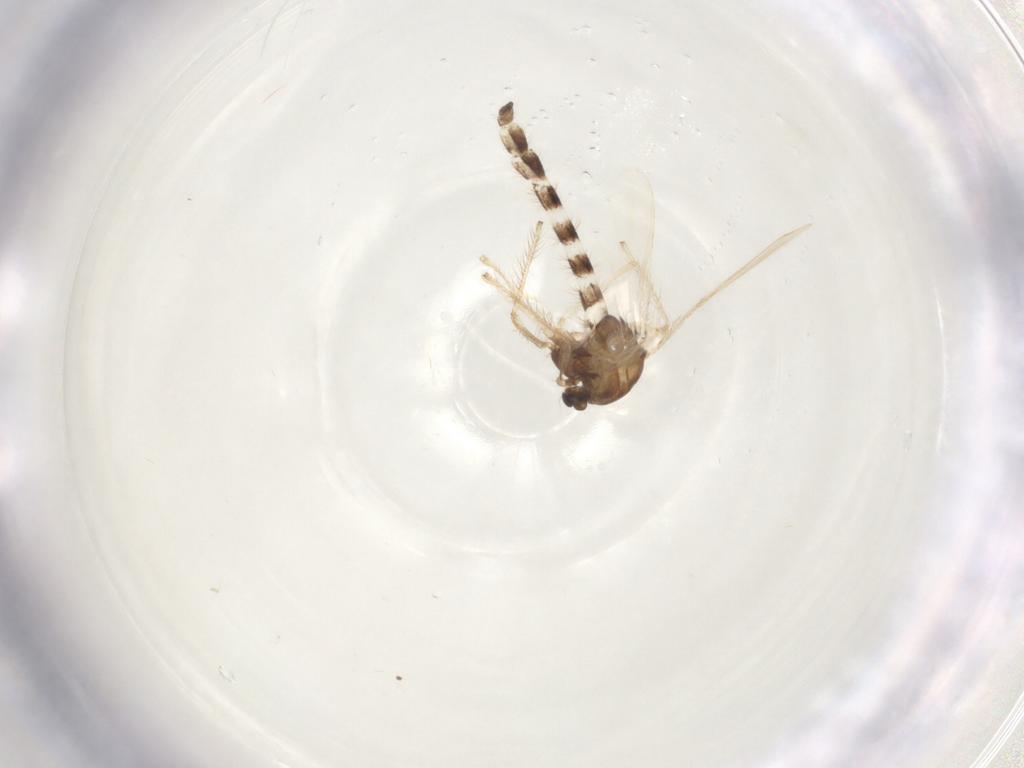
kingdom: Animalia
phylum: Arthropoda
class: Insecta
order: Diptera
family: Chironomidae
